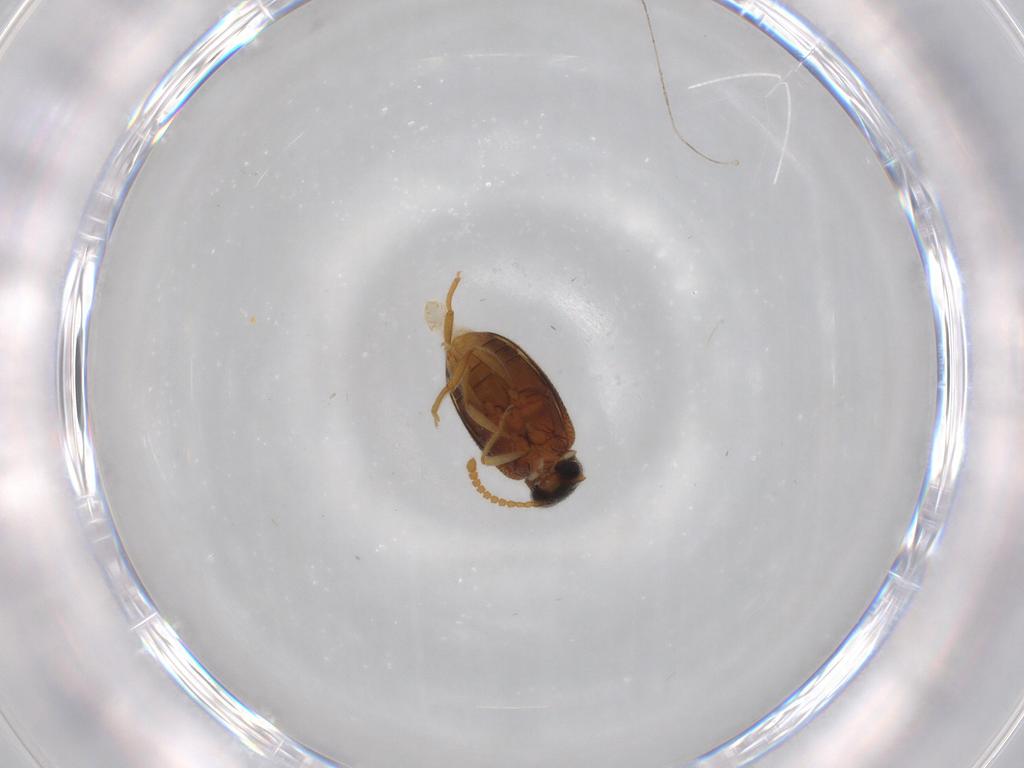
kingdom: Animalia
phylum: Arthropoda
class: Insecta
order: Coleoptera
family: Aderidae
